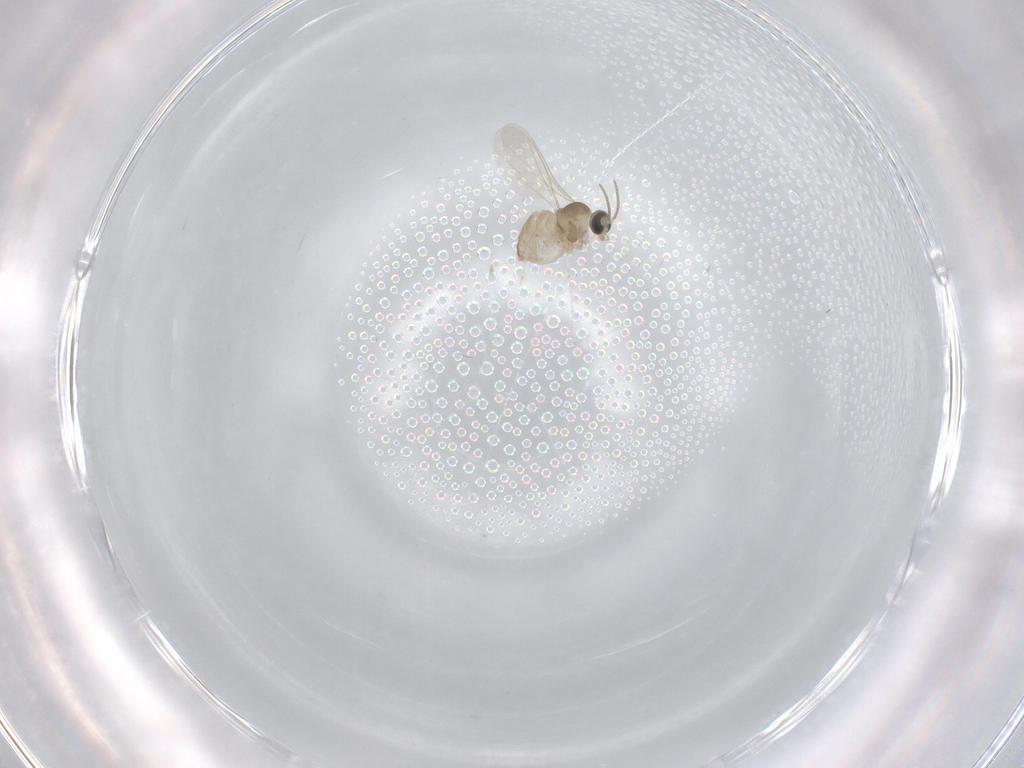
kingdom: Animalia
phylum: Arthropoda
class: Insecta
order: Diptera
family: Cecidomyiidae
